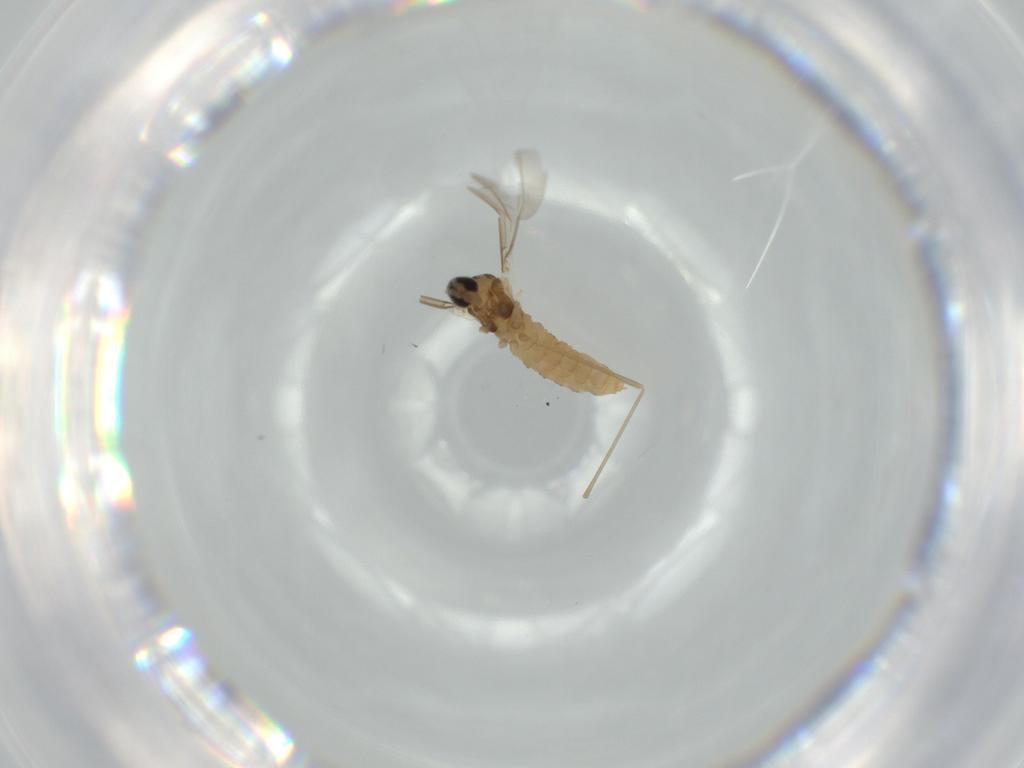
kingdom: Animalia
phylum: Arthropoda
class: Insecta
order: Diptera
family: Cecidomyiidae
